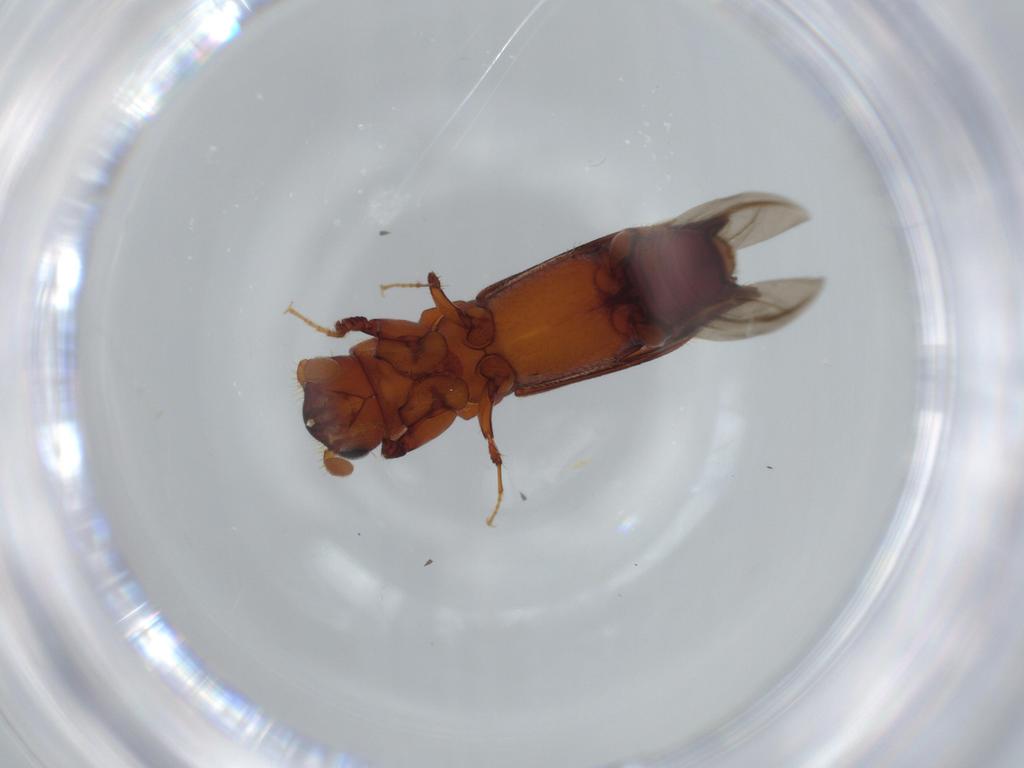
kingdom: Animalia
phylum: Arthropoda
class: Insecta
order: Coleoptera
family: Curculionidae
